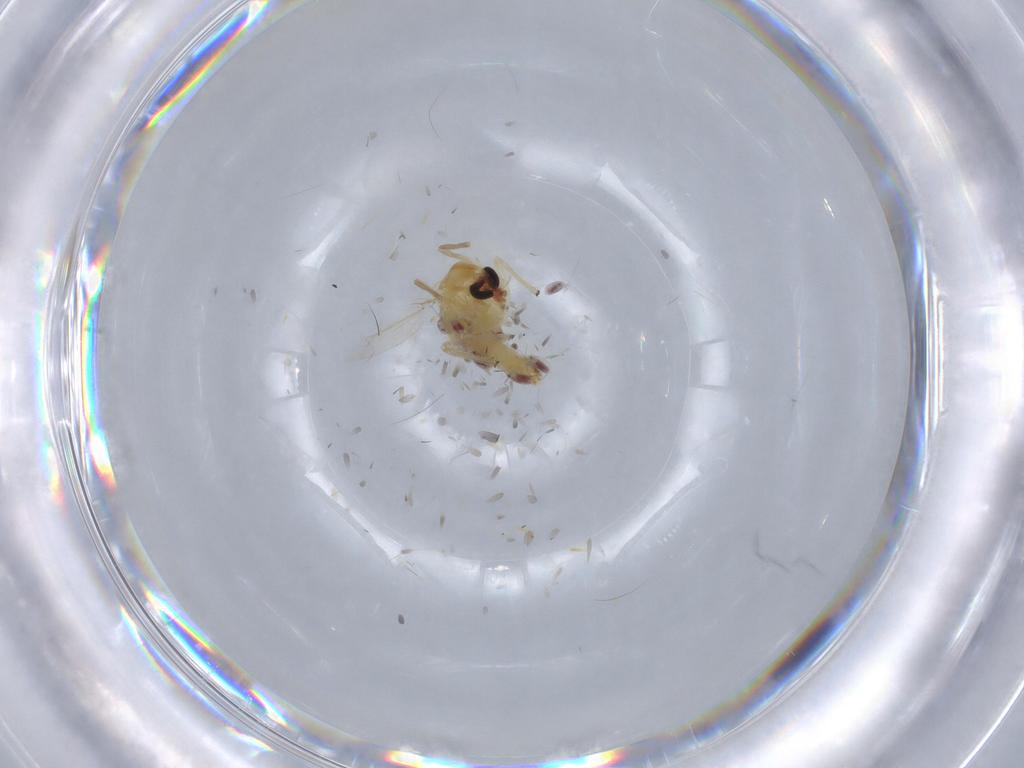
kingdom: Animalia
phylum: Arthropoda
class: Insecta
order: Diptera
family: Chironomidae
